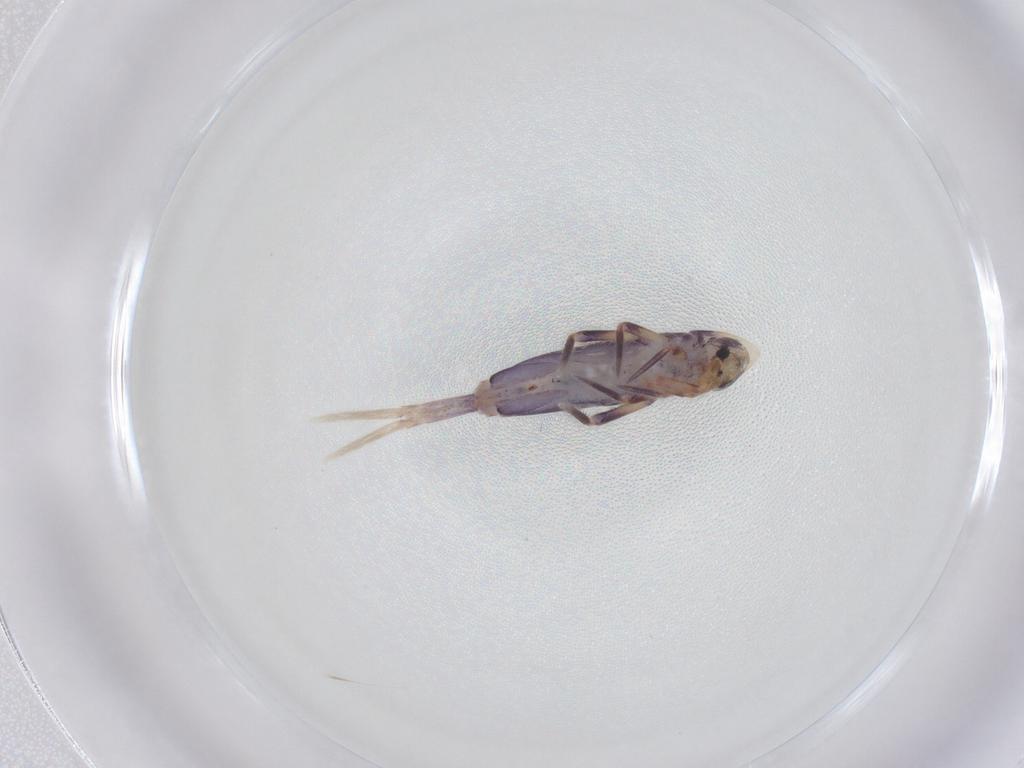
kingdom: Animalia
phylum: Arthropoda
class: Collembola
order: Entomobryomorpha
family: Entomobryidae
